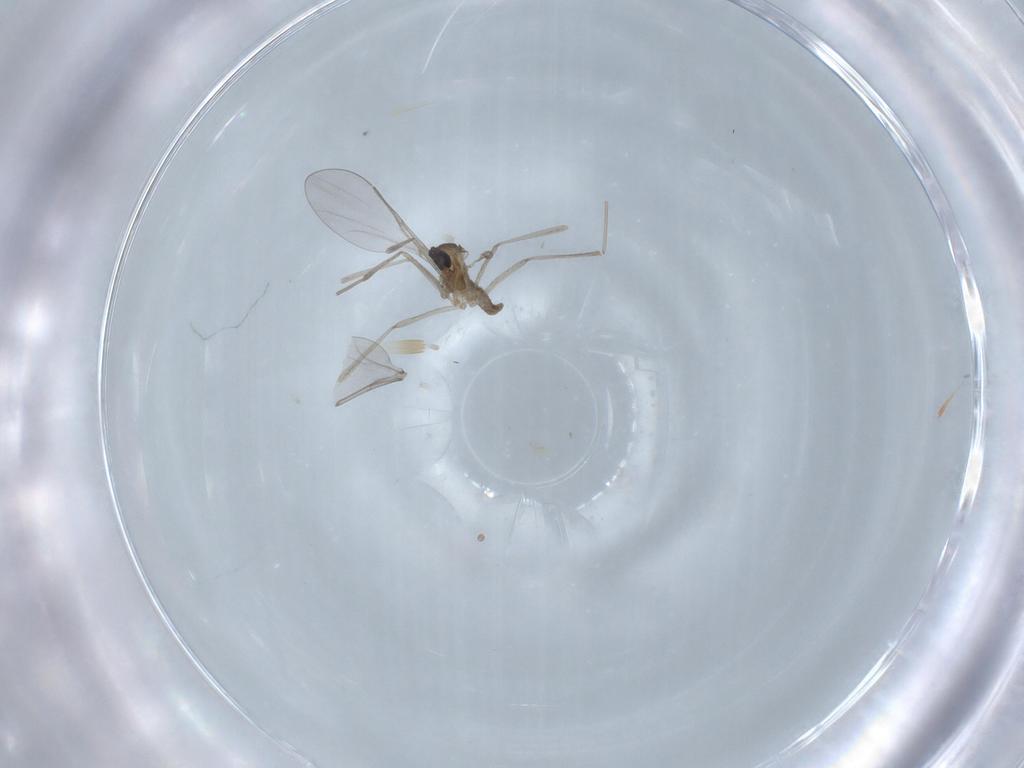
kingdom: Animalia
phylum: Arthropoda
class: Insecta
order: Diptera
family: Cecidomyiidae
